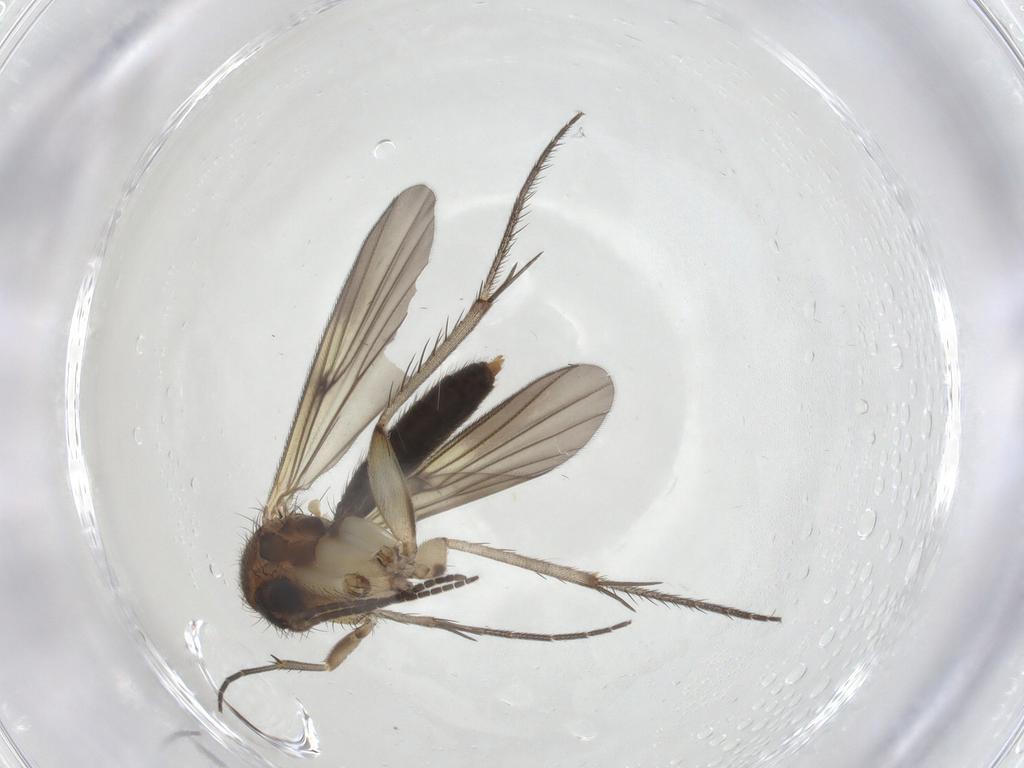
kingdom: Animalia
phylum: Arthropoda
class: Insecta
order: Diptera
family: Mycetophilidae
